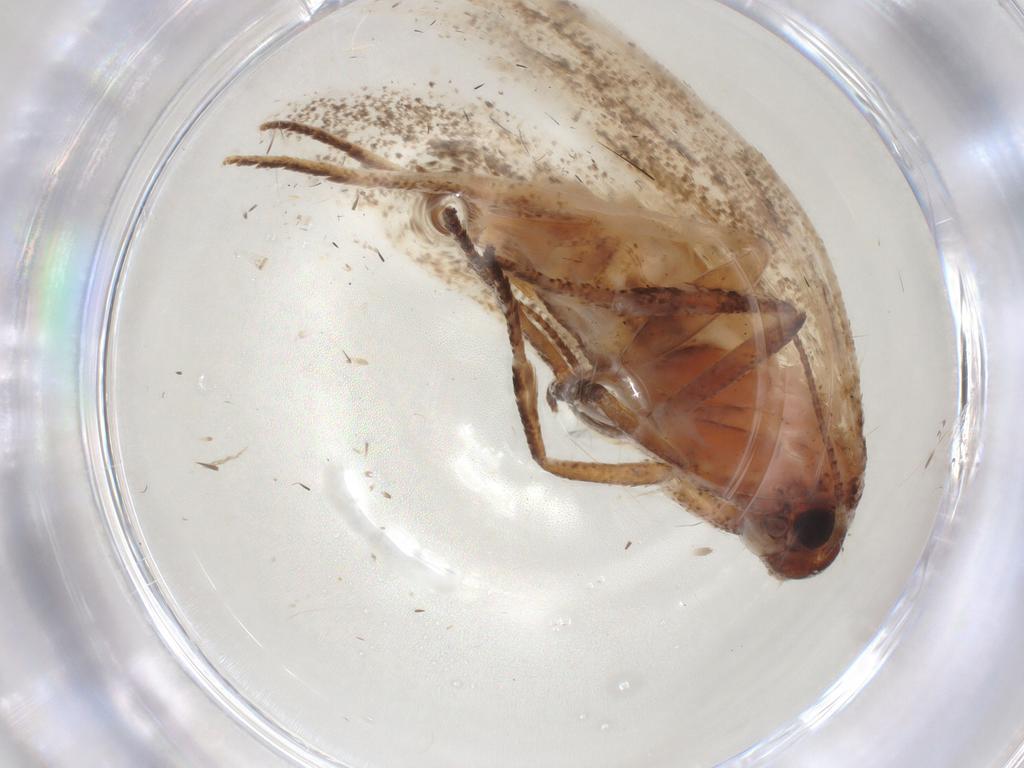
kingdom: Animalia
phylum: Arthropoda
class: Insecta
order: Lepidoptera
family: Cosmopterigidae
